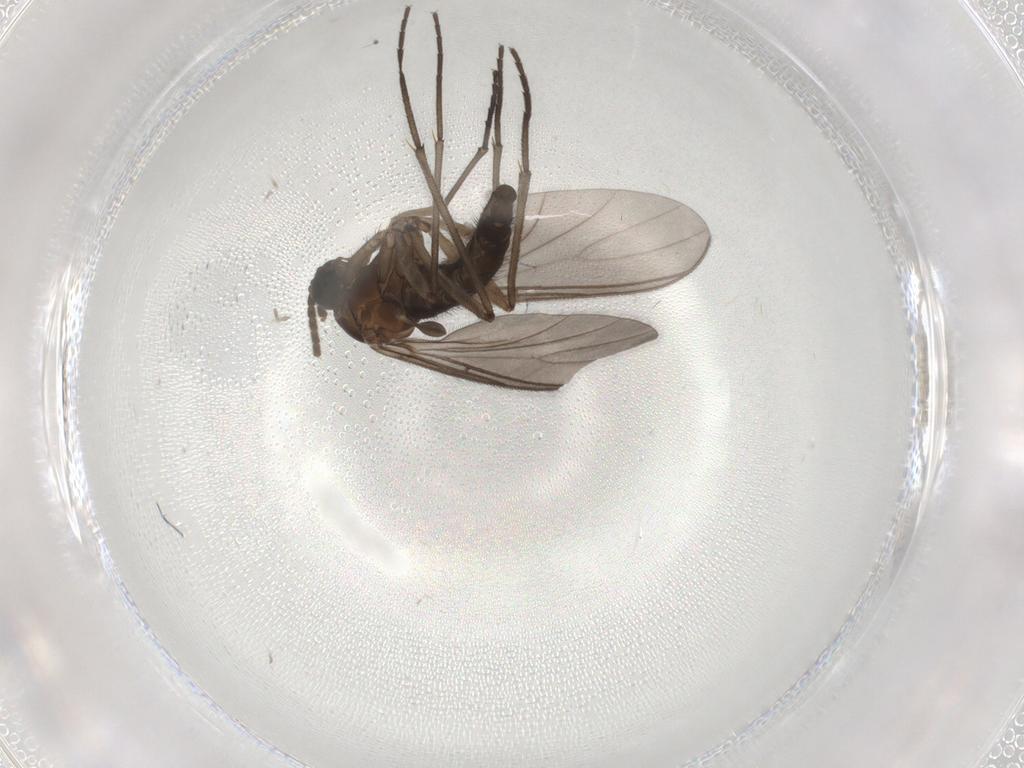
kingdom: Animalia
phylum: Arthropoda
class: Insecta
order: Diptera
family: Sciaridae
